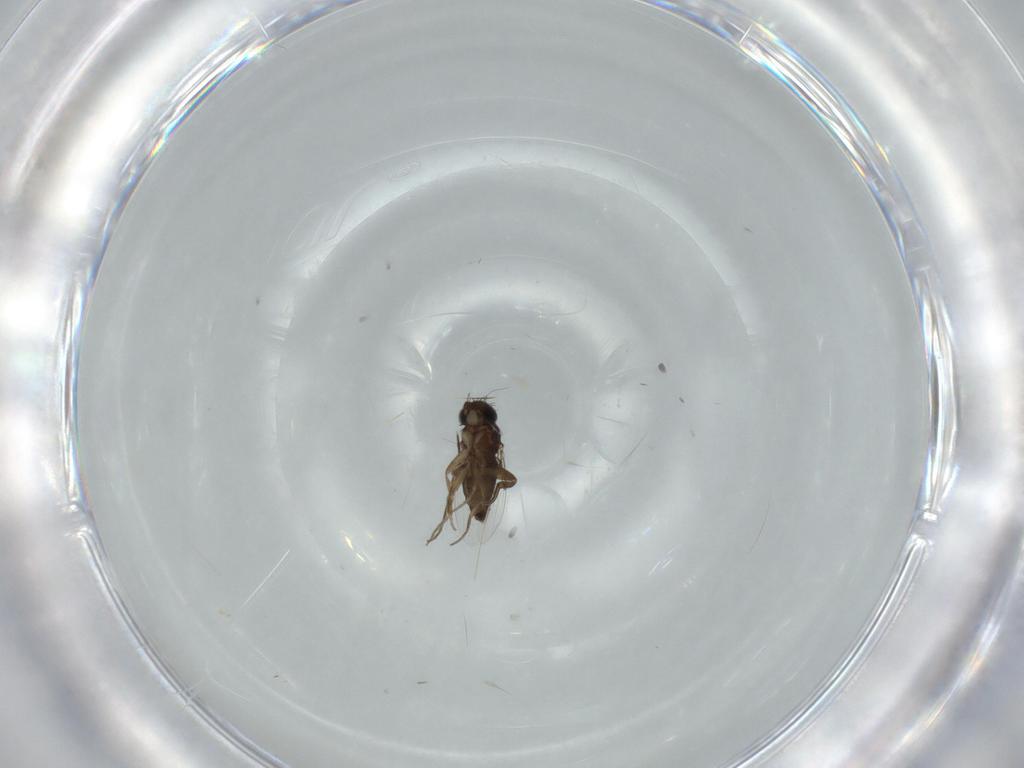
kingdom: Animalia
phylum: Arthropoda
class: Insecta
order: Diptera
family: Phoridae
